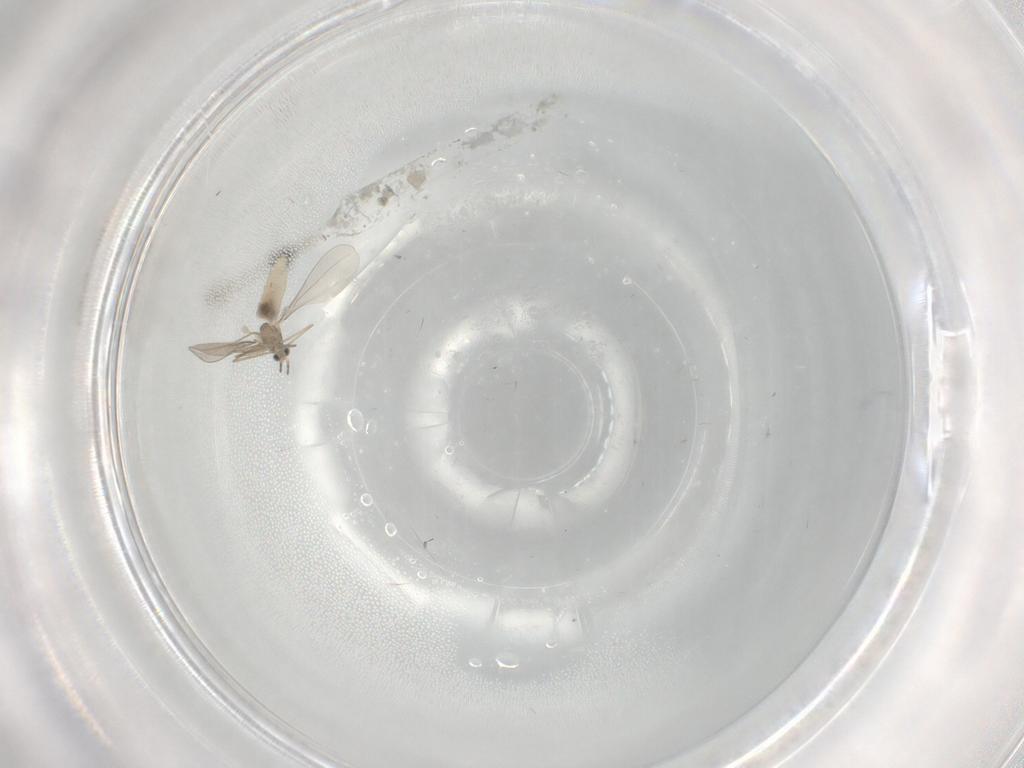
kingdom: Animalia
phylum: Arthropoda
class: Insecta
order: Diptera
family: Cecidomyiidae
